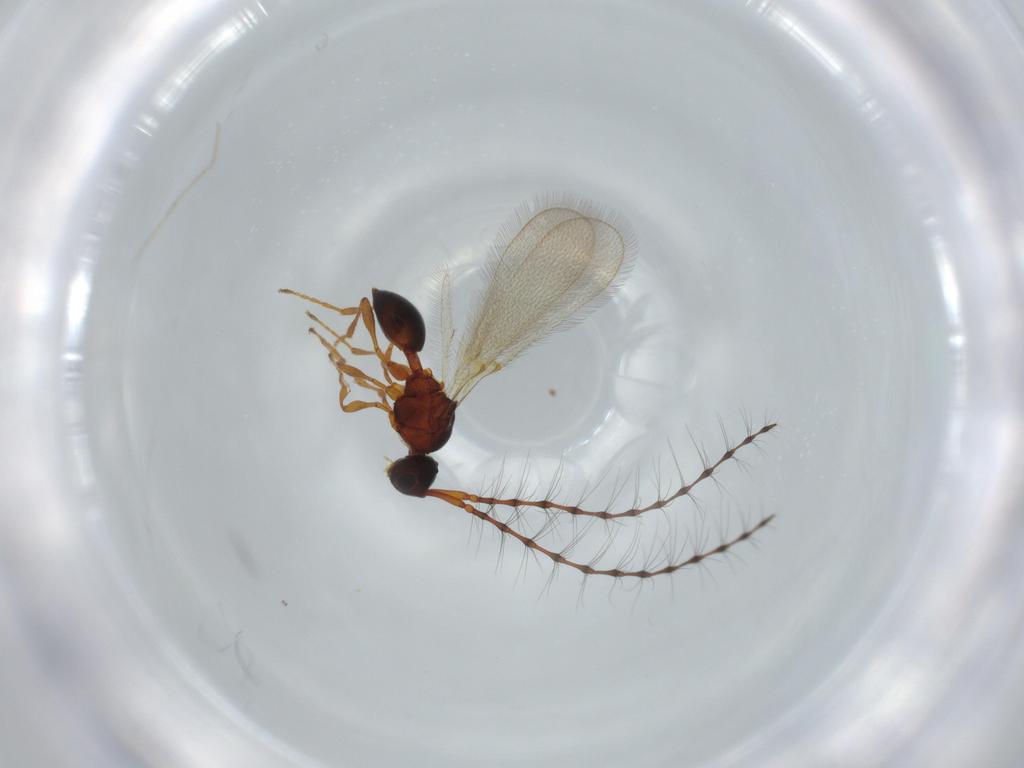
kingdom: Animalia
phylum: Arthropoda
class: Insecta
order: Hymenoptera
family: Diapriidae
